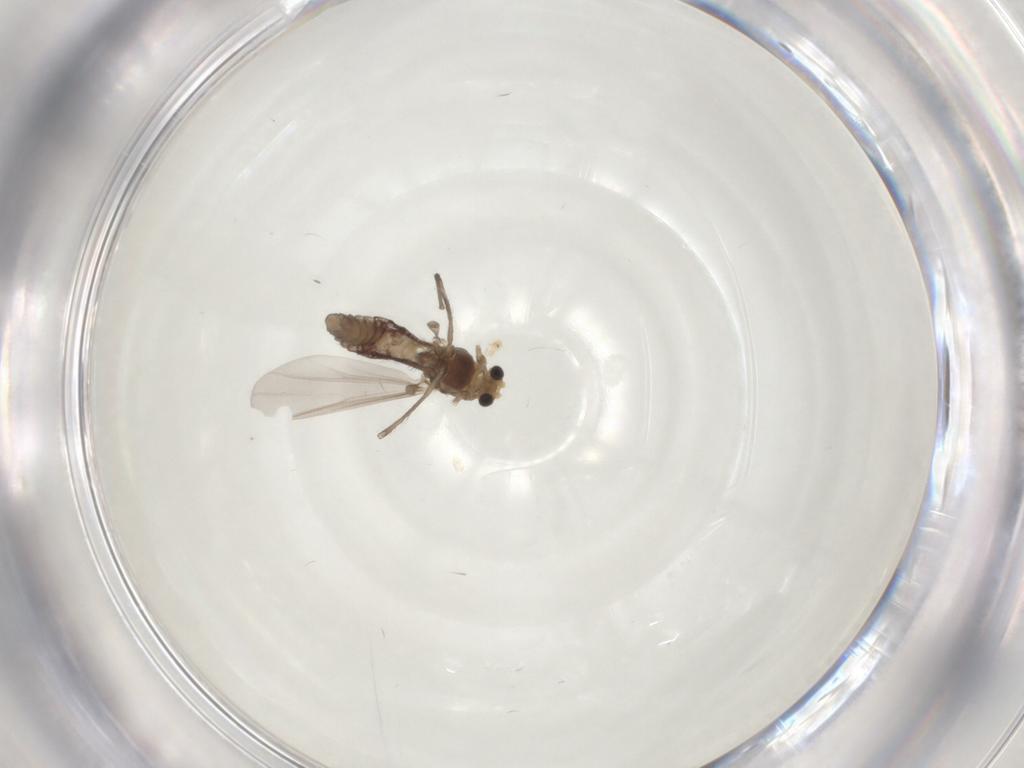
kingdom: Animalia
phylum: Arthropoda
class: Insecta
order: Diptera
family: Chironomidae
